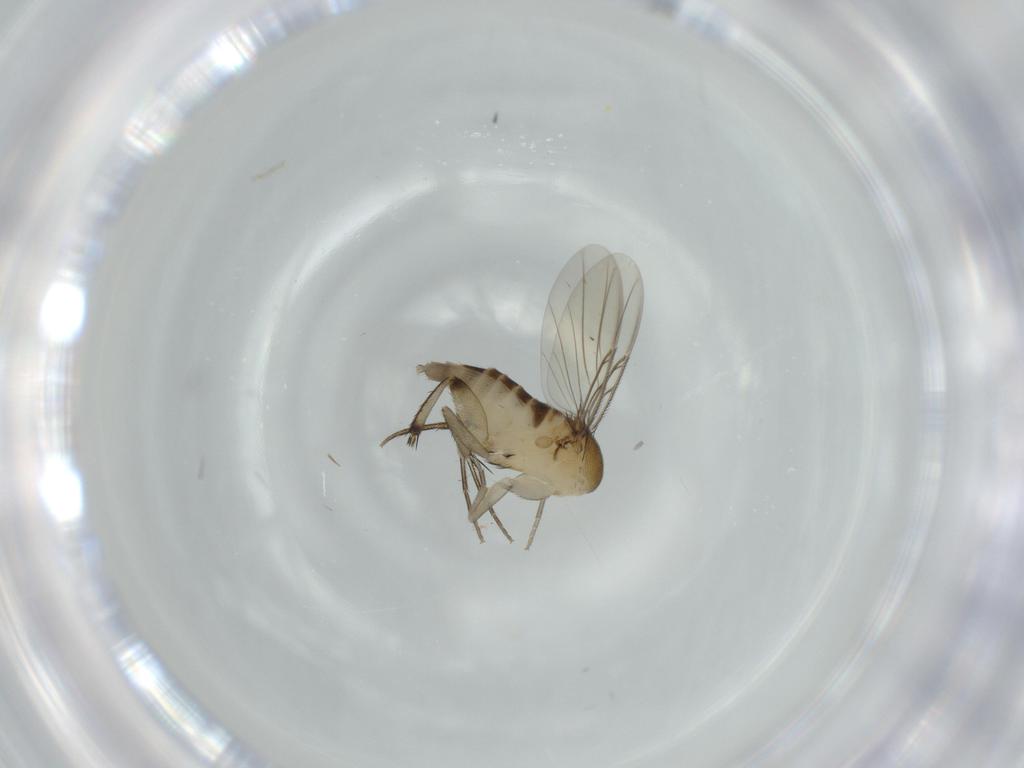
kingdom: Animalia
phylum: Arthropoda
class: Insecta
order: Diptera
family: Phoridae
